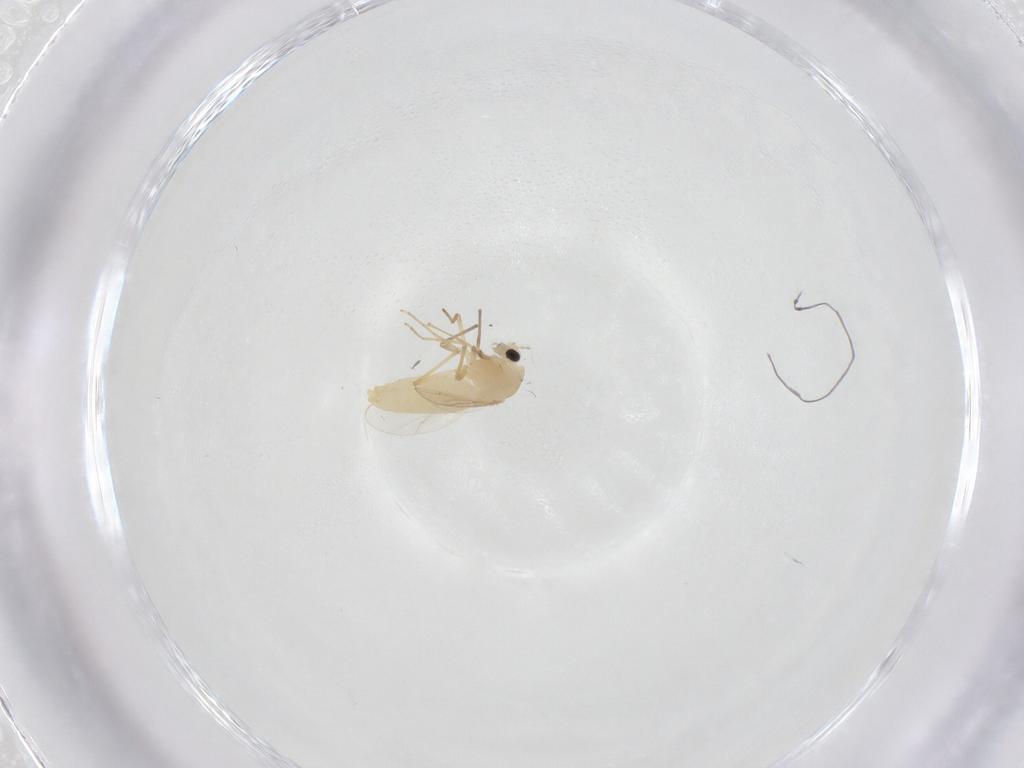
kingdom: Animalia
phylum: Arthropoda
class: Insecta
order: Diptera
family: Chironomidae
